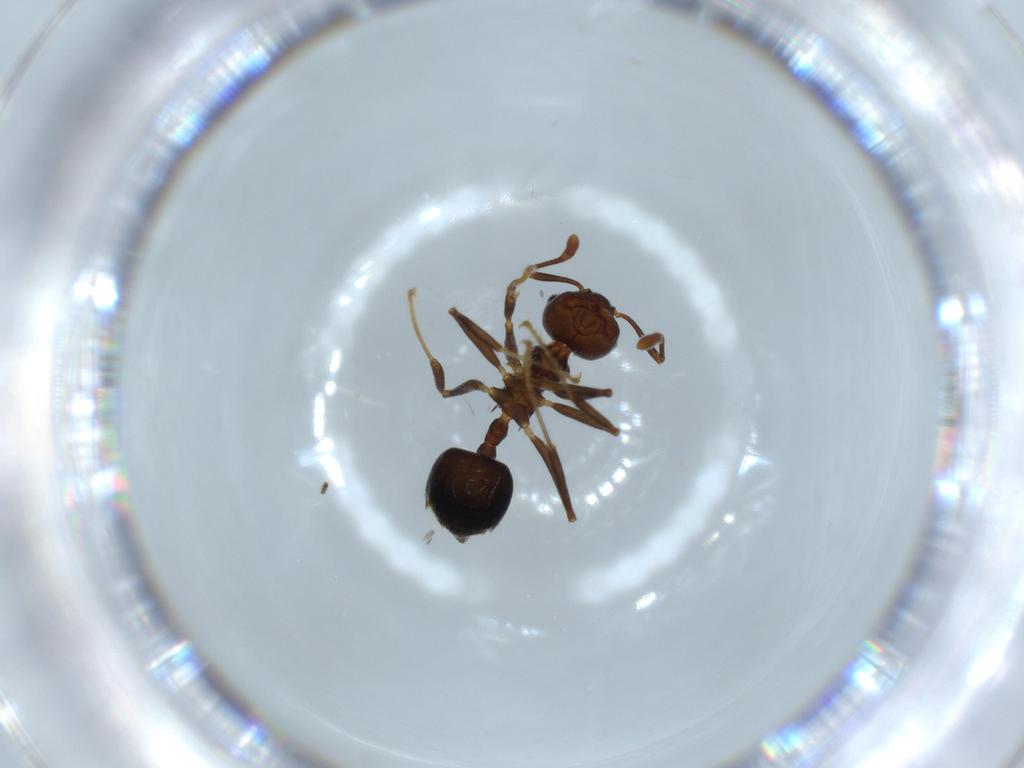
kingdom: Animalia
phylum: Arthropoda
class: Insecta
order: Hymenoptera
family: Formicidae
